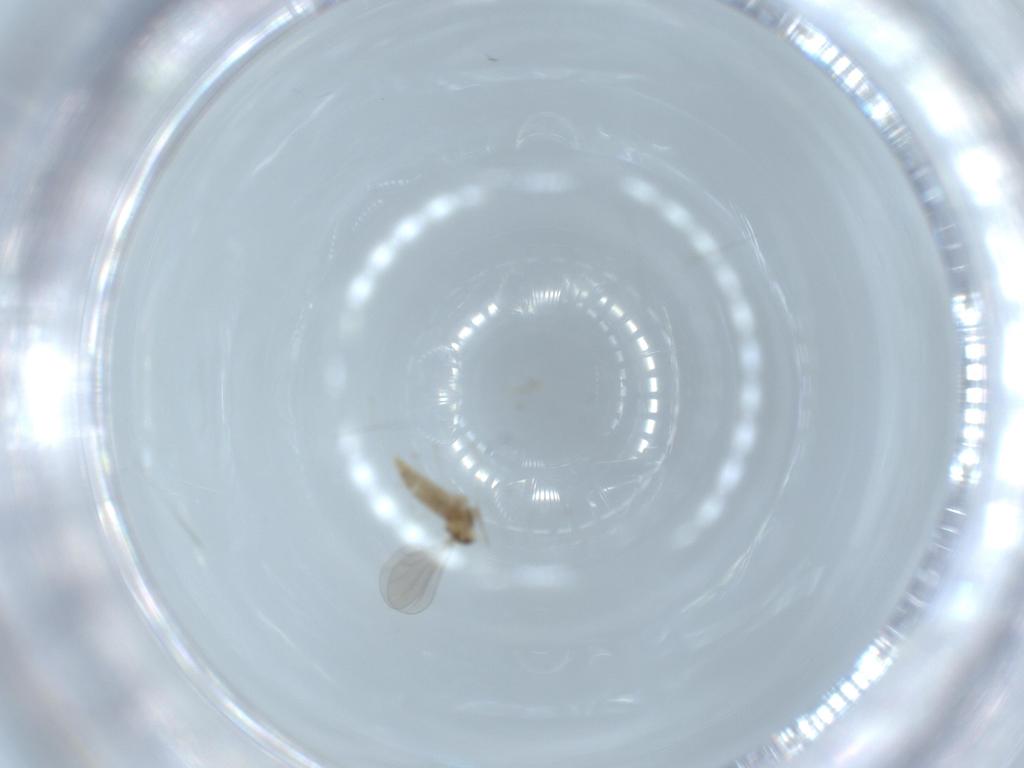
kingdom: Animalia
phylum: Arthropoda
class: Insecta
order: Diptera
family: Cecidomyiidae
